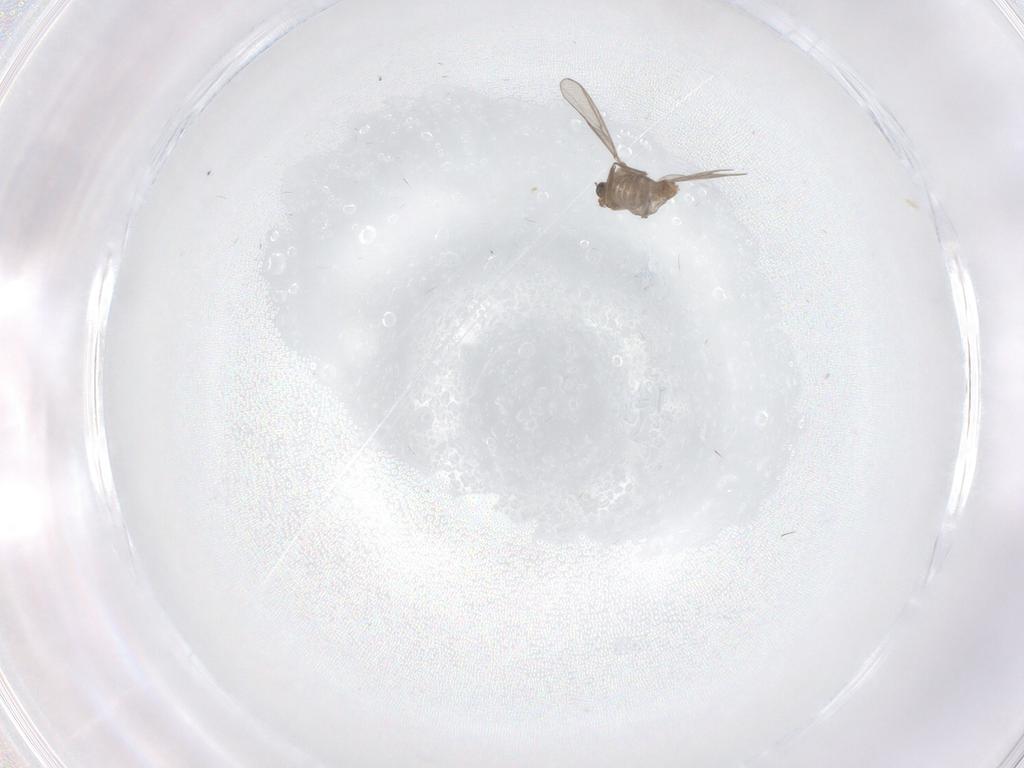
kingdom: Animalia
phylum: Arthropoda
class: Insecta
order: Diptera
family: Chironomidae
